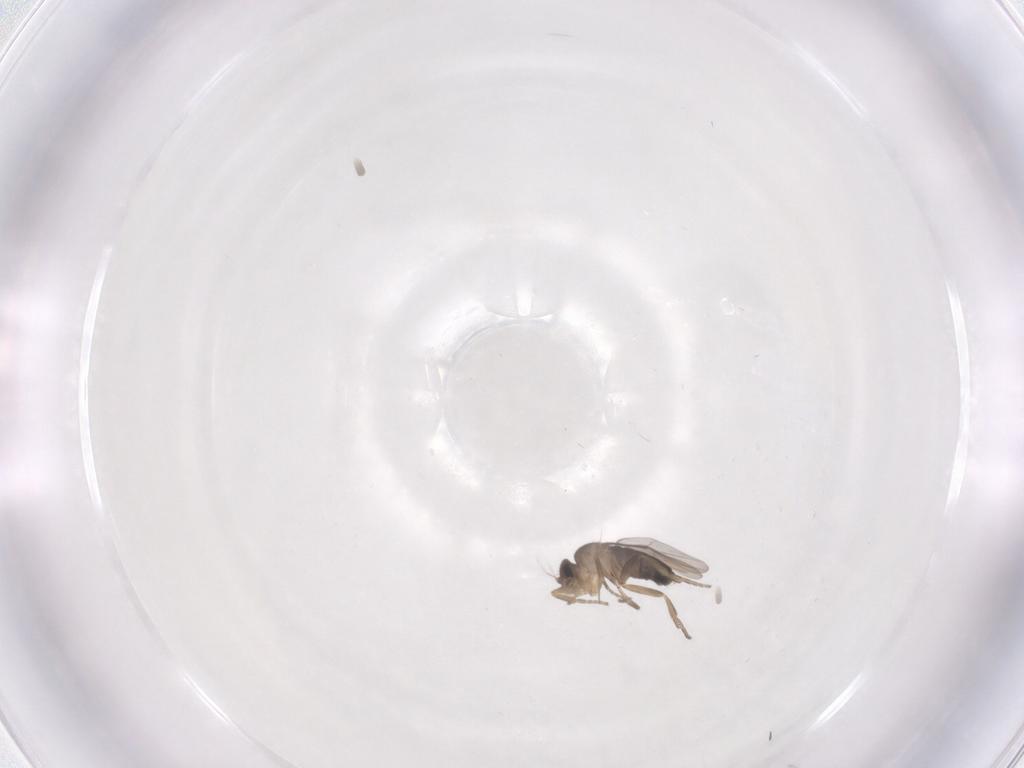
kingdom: Animalia
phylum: Arthropoda
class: Insecta
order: Diptera
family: Phoridae
